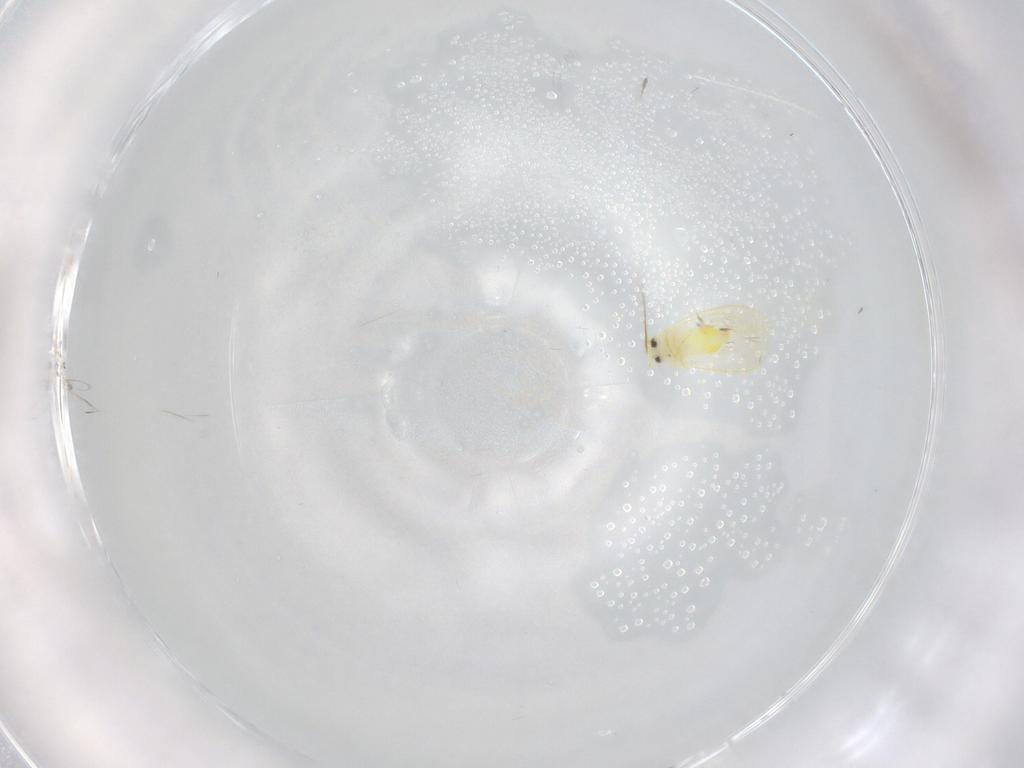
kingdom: Animalia
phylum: Arthropoda
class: Insecta
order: Hemiptera
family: Aleyrodidae
